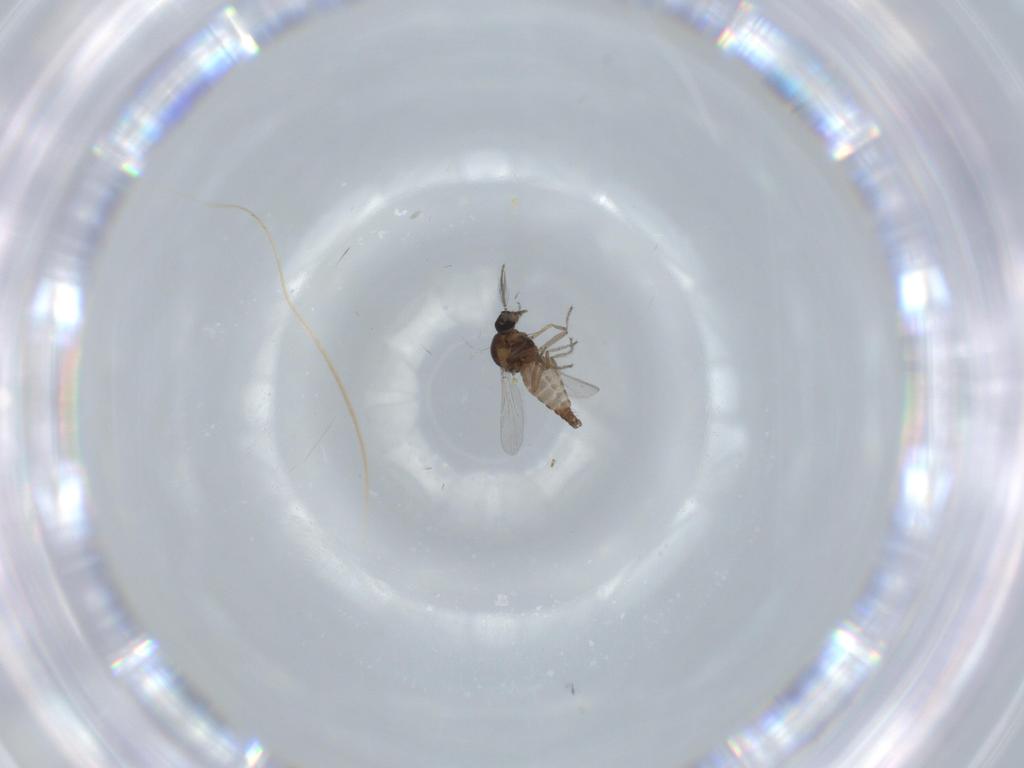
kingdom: Animalia
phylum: Arthropoda
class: Insecta
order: Diptera
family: Ceratopogonidae
